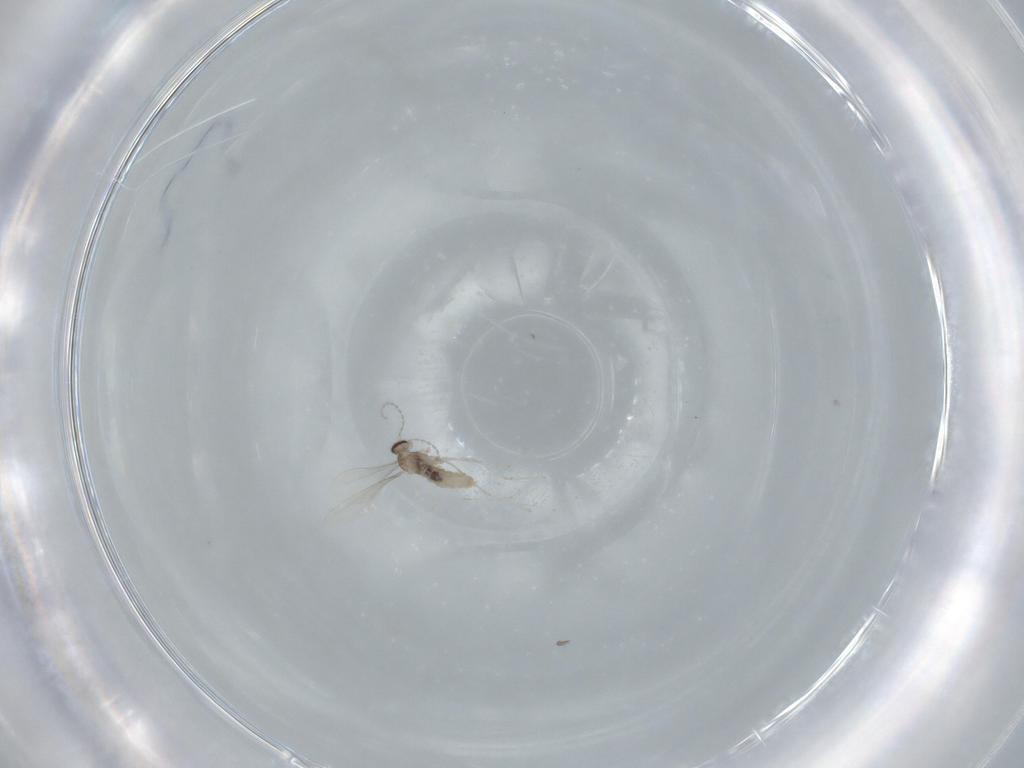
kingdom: Animalia
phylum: Arthropoda
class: Insecta
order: Diptera
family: Cecidomyiidae
